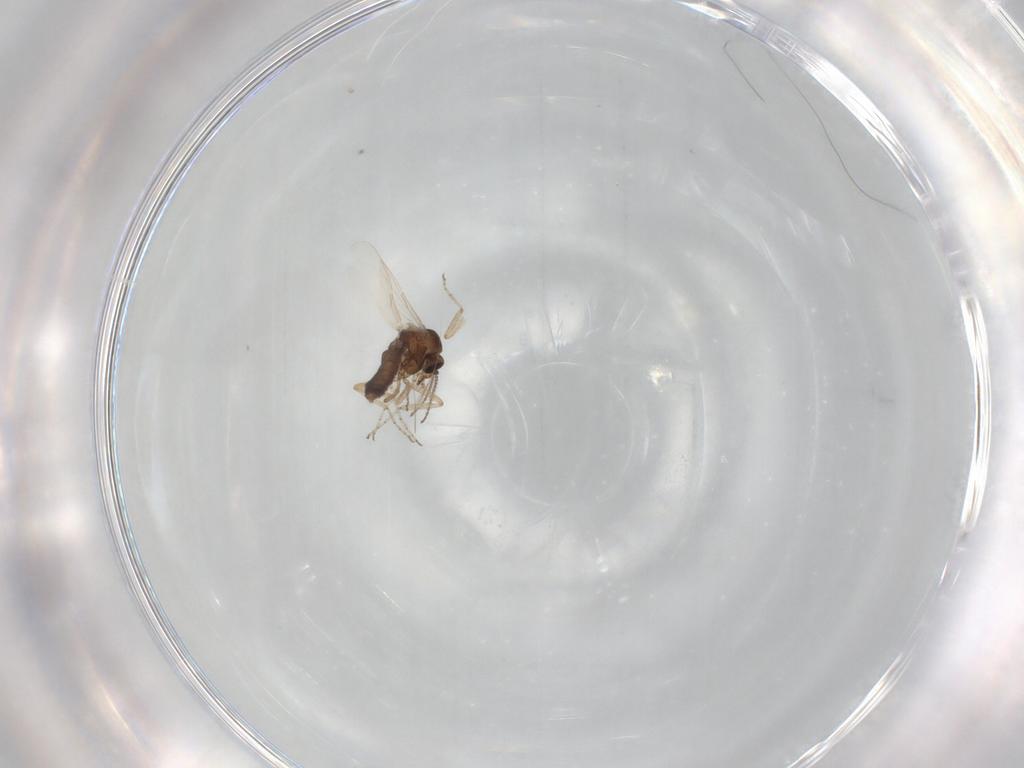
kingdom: Animalia
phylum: Arthropoda
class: Insecta
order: Diptera
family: Ceratopogonidae
